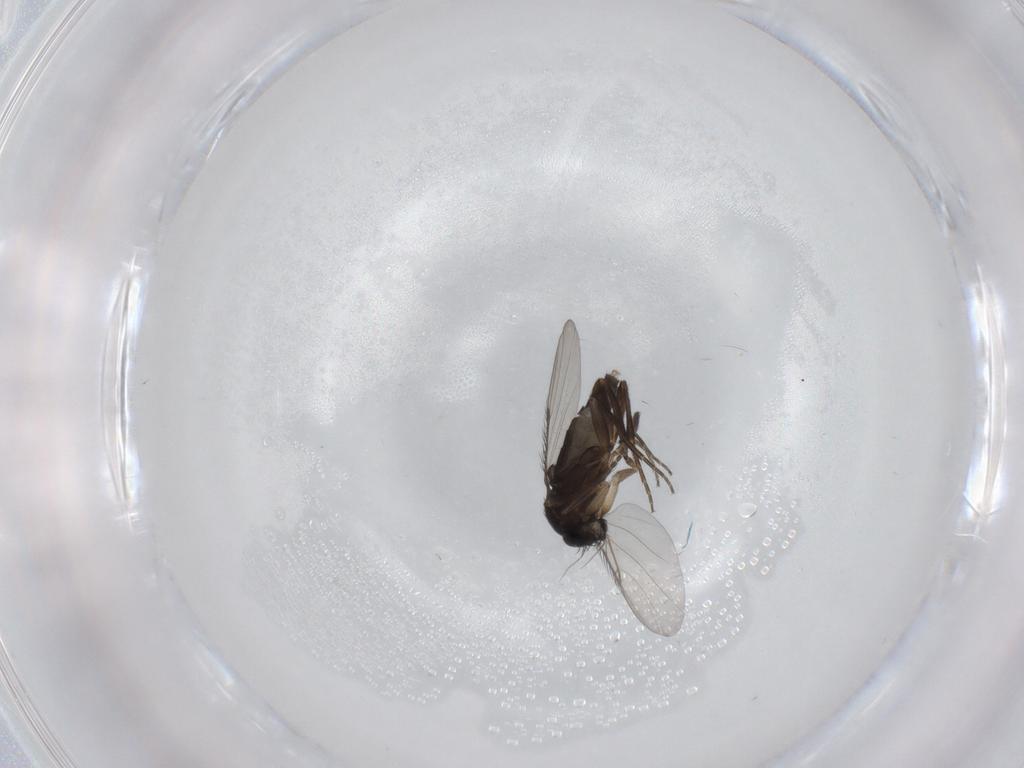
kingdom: Animalia
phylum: Arthropoda
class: Insecta
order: Diptera
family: Phoridae
